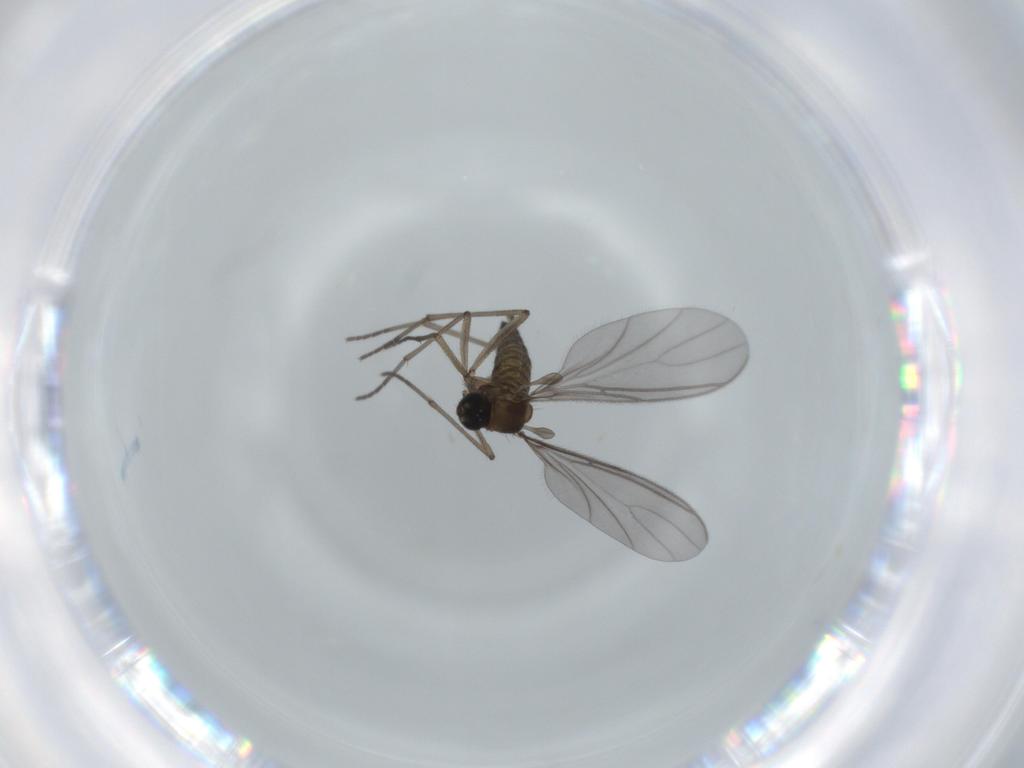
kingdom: Animalia
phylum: Arthropoda
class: Insecta
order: Diptera
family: Sciaridae
